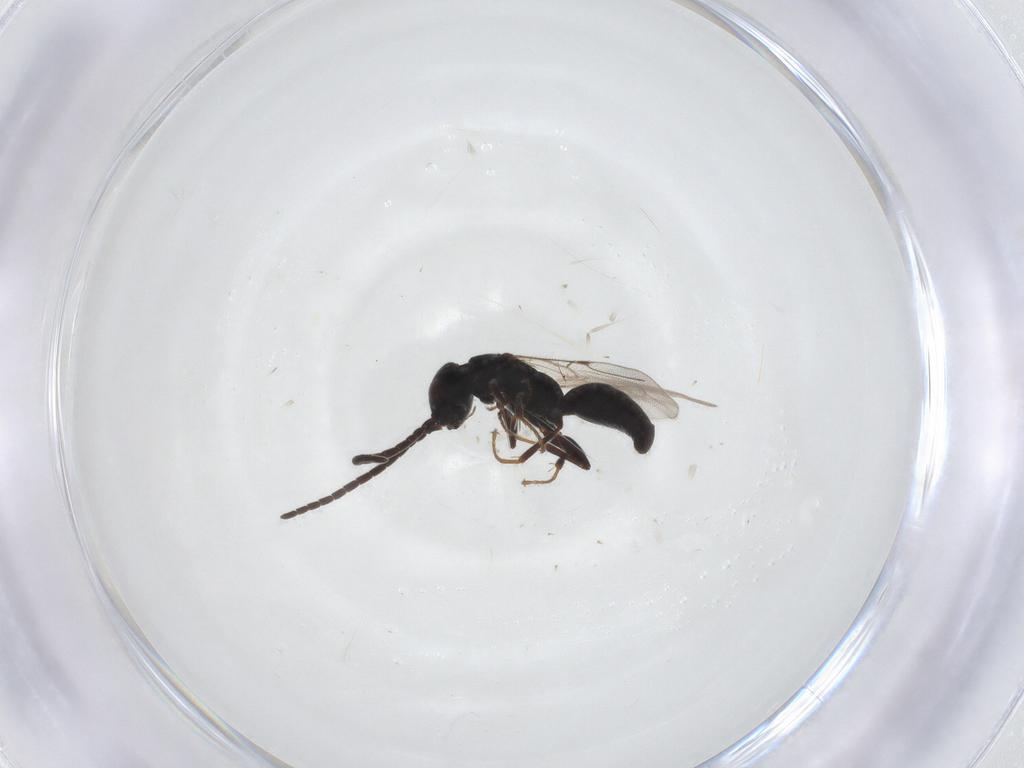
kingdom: Animalia
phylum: Arthropoda
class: Insecta
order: Hymenoptera
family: Bethylidae
